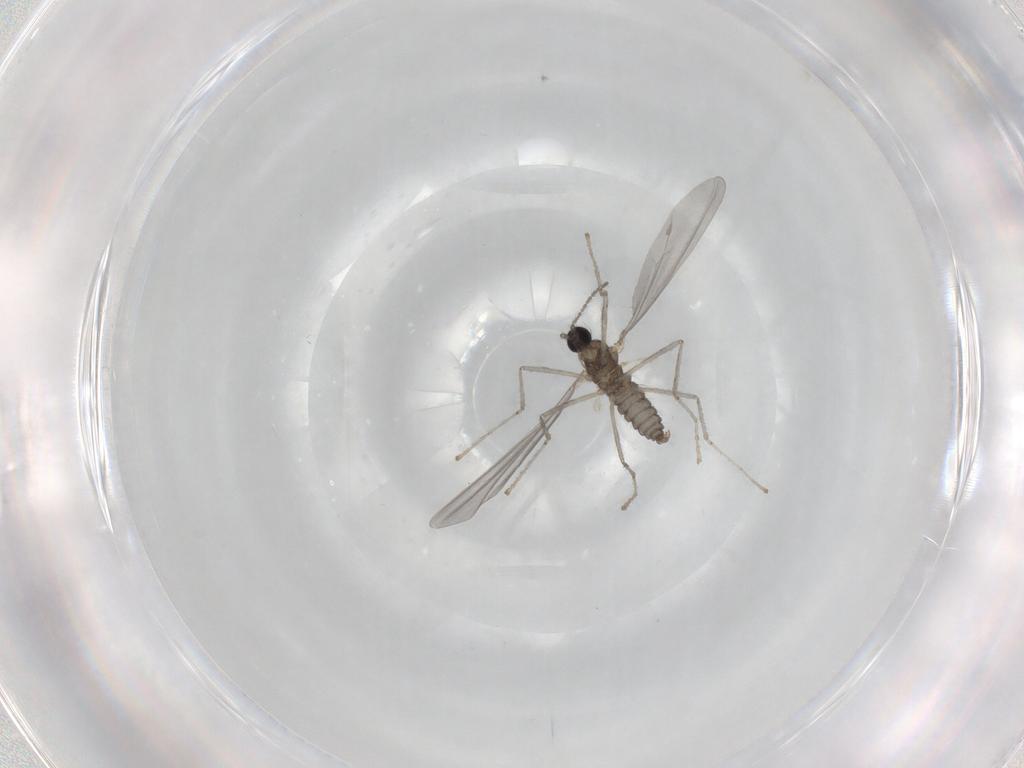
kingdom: Animalia
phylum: Arthropoda
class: Insecta
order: Diptera
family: Cecidomyiidae
